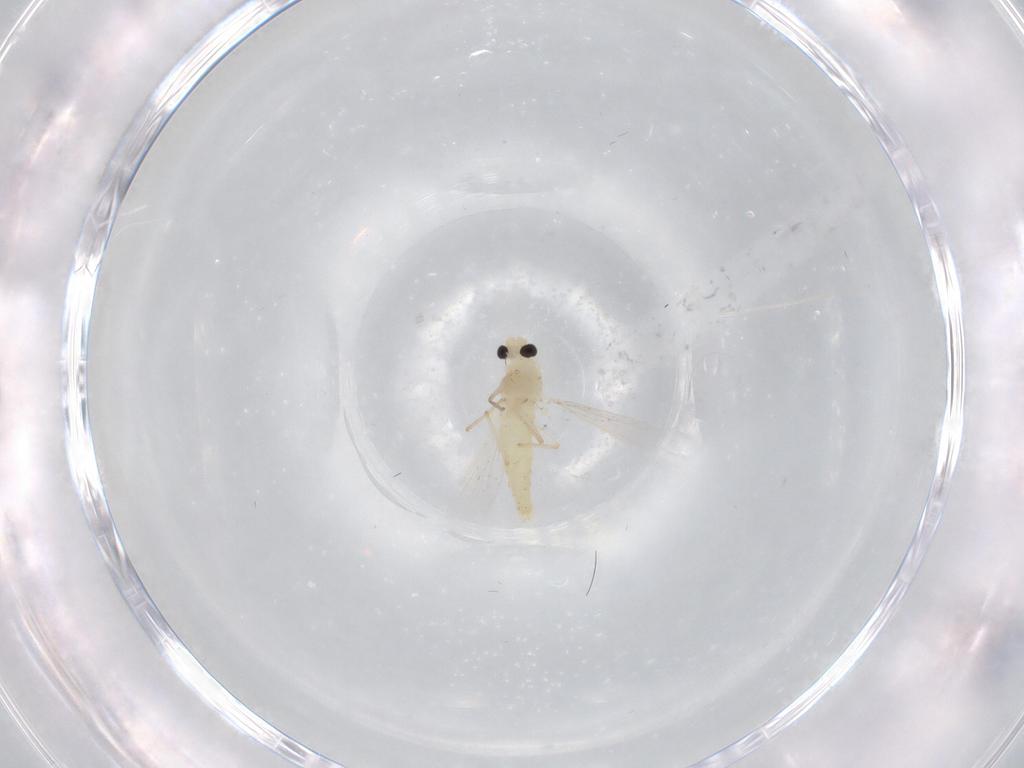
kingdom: Animalia
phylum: Arthropoda
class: Insecta
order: Diptera
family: Chironomidae
